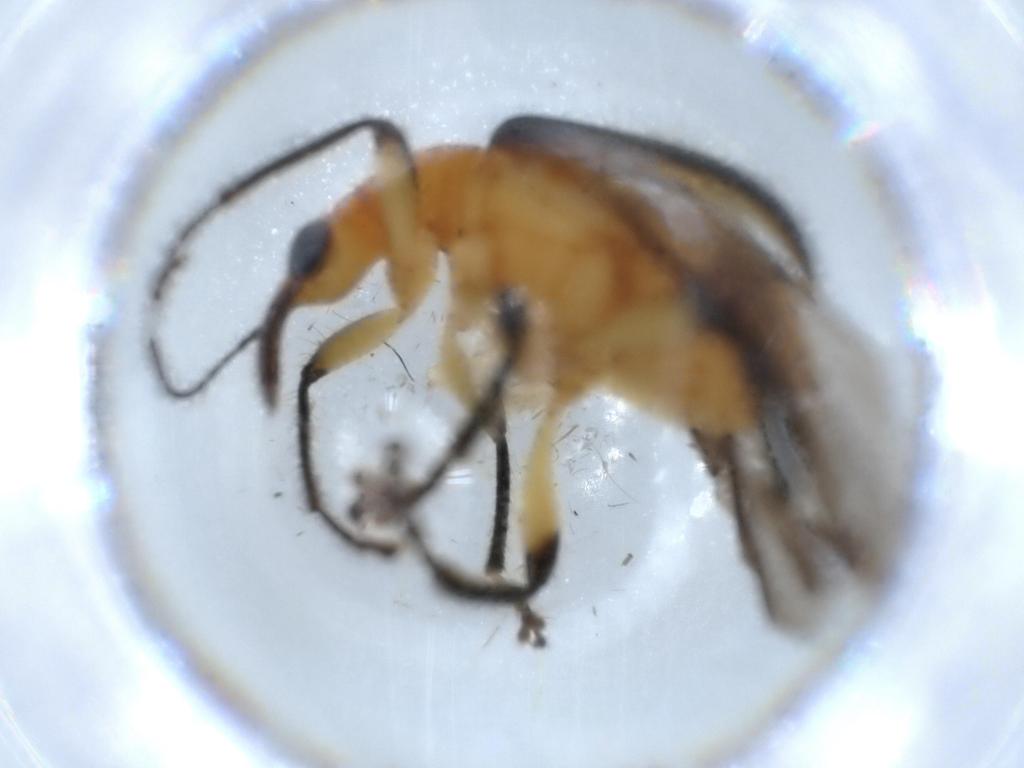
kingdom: Animalia
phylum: Arthropoda
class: Insecta
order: Coleoptera
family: Attelabidae
